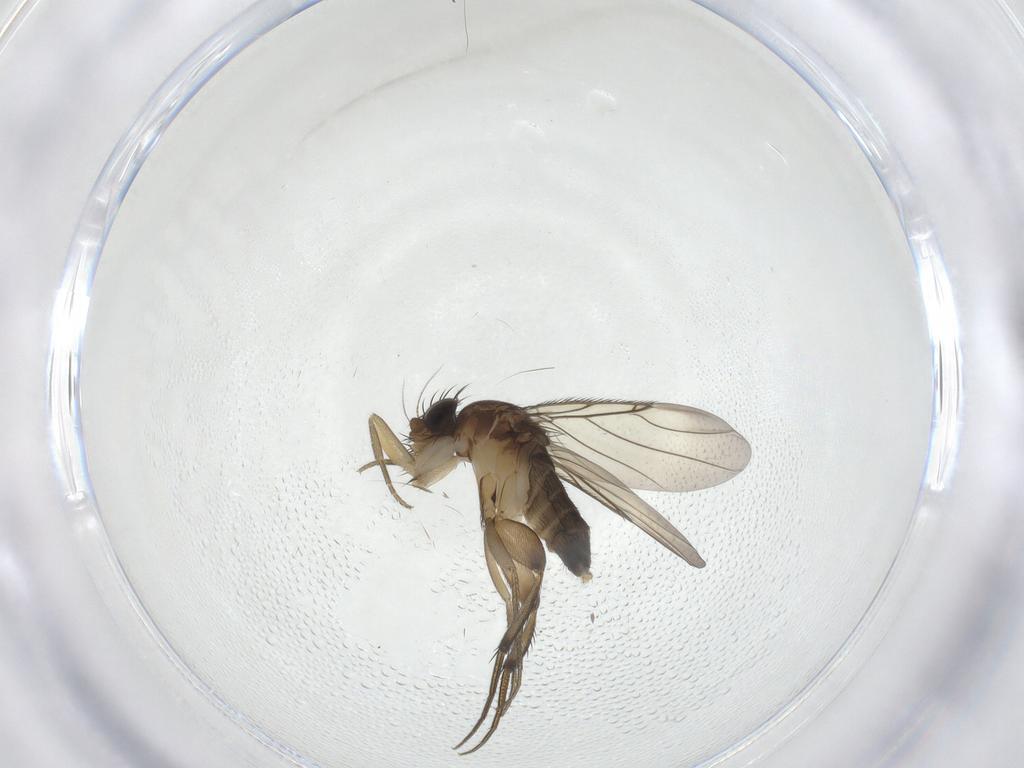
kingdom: Animalia
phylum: Arthropoda
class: Insecta
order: Diptera
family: Phoridae
